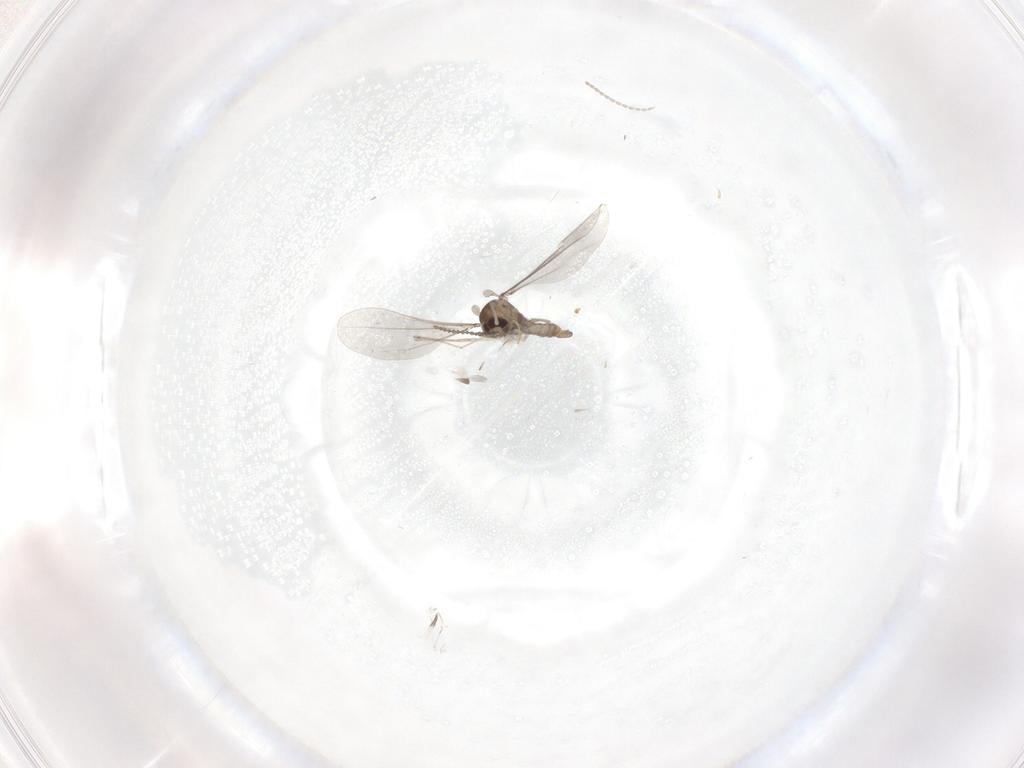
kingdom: Animalia
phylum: Arthropoda
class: Insecta
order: Diptera
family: Cecidomyiidae
